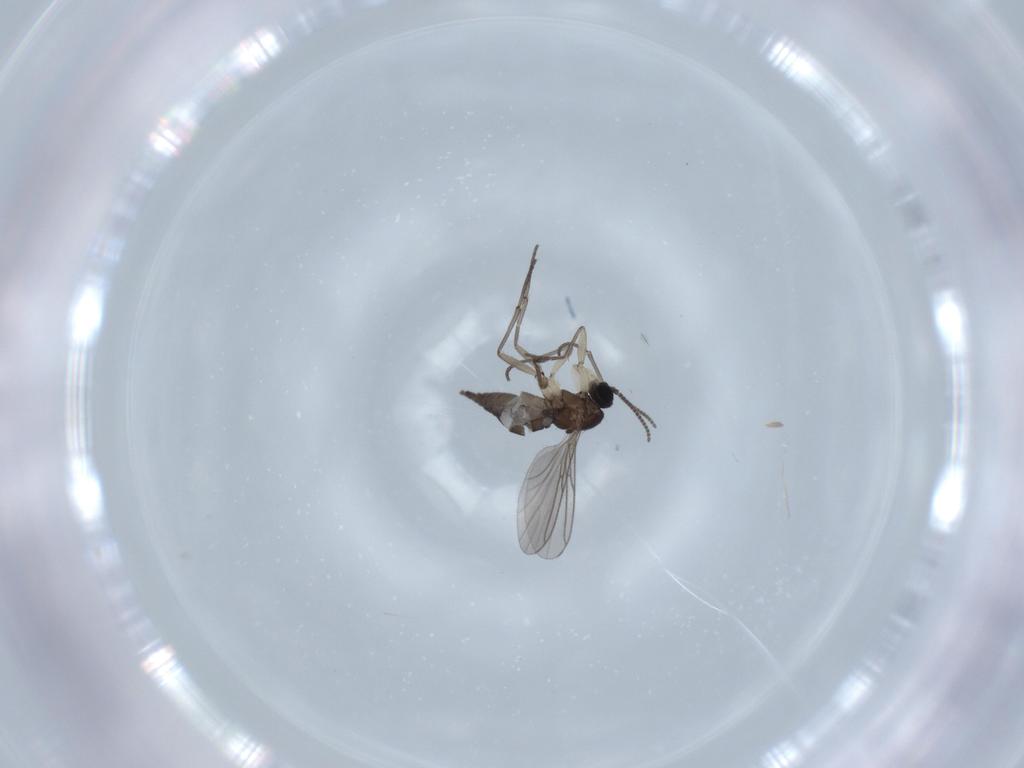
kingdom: Animalia
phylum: Arthropoda
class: Insecta
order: Diptera
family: Sciaridae
